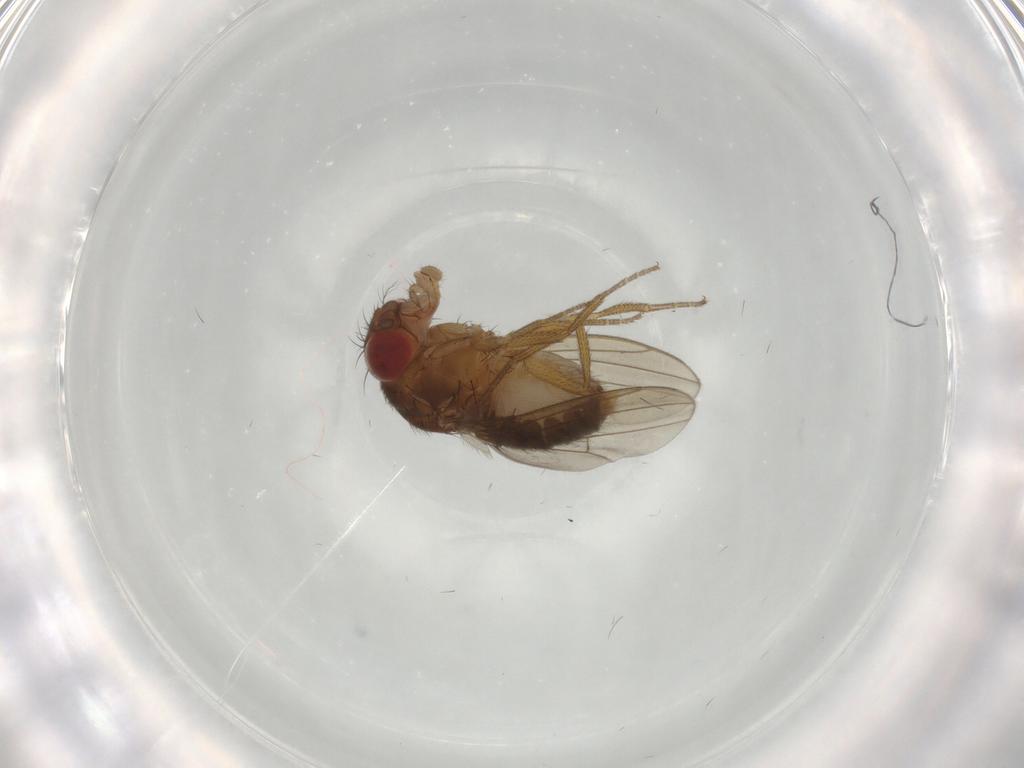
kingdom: Animalia
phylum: Arthropoda
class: Insecta
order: Diptera
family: Drosophilidae
